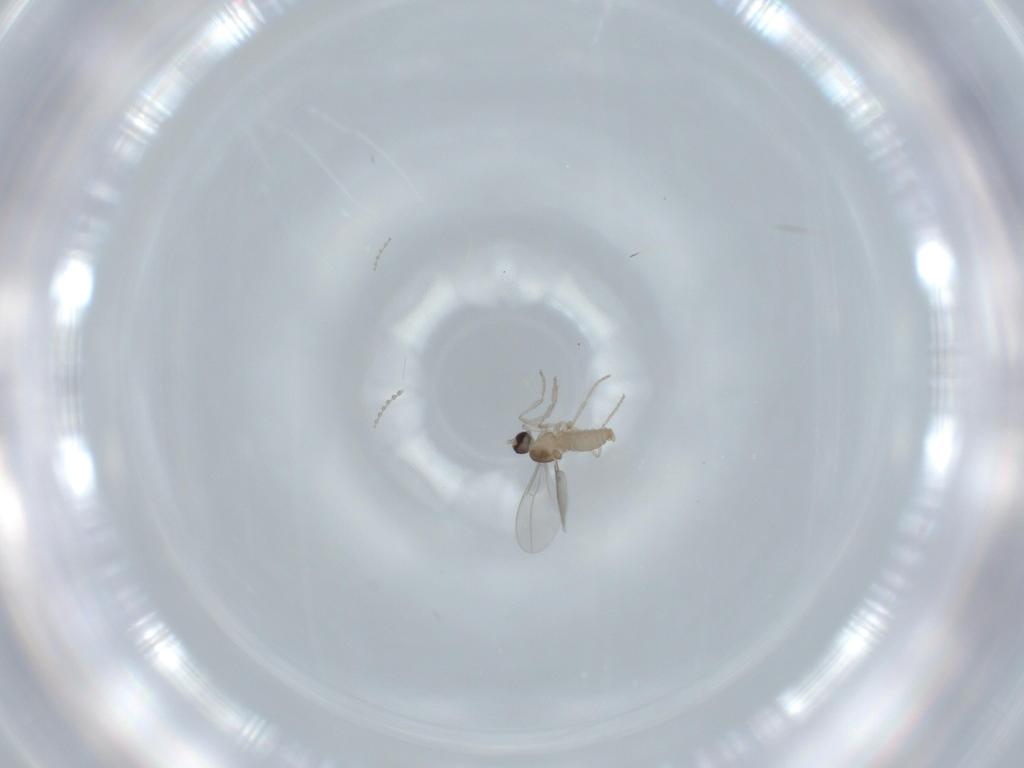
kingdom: Animalia
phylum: Arthropoda
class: Insecta
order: Diptera
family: Cecidomyiidae
